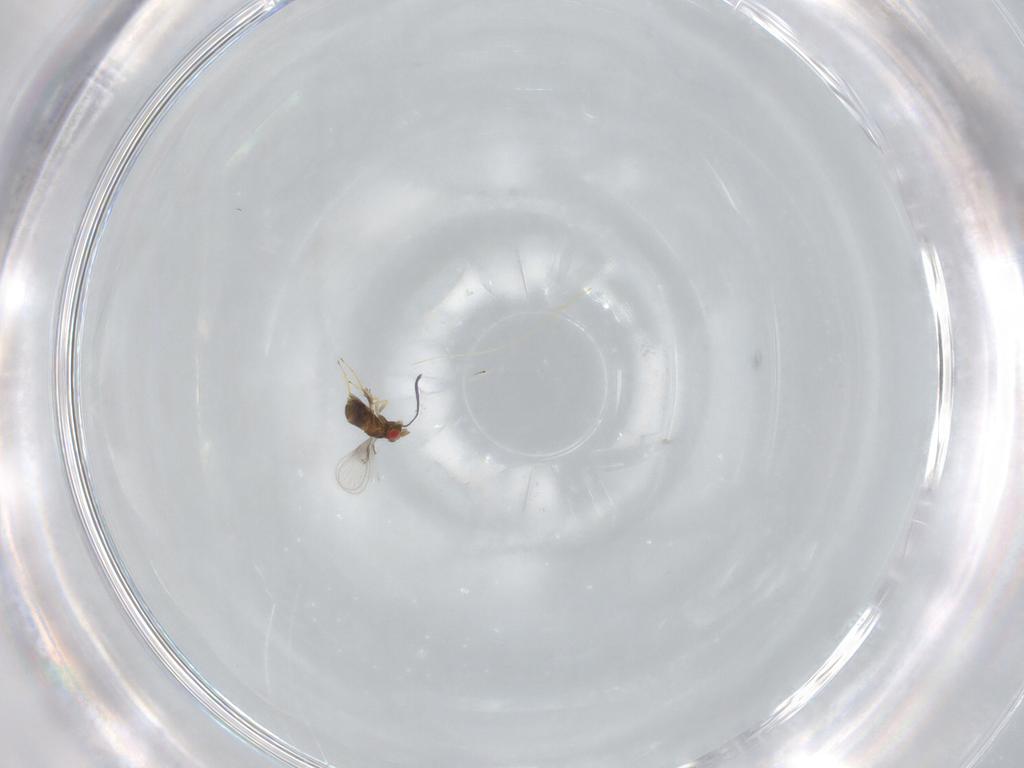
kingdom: Animalia
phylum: Arthropoda
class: Insecta
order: Hymenoptera
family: Trichogrammatidae
